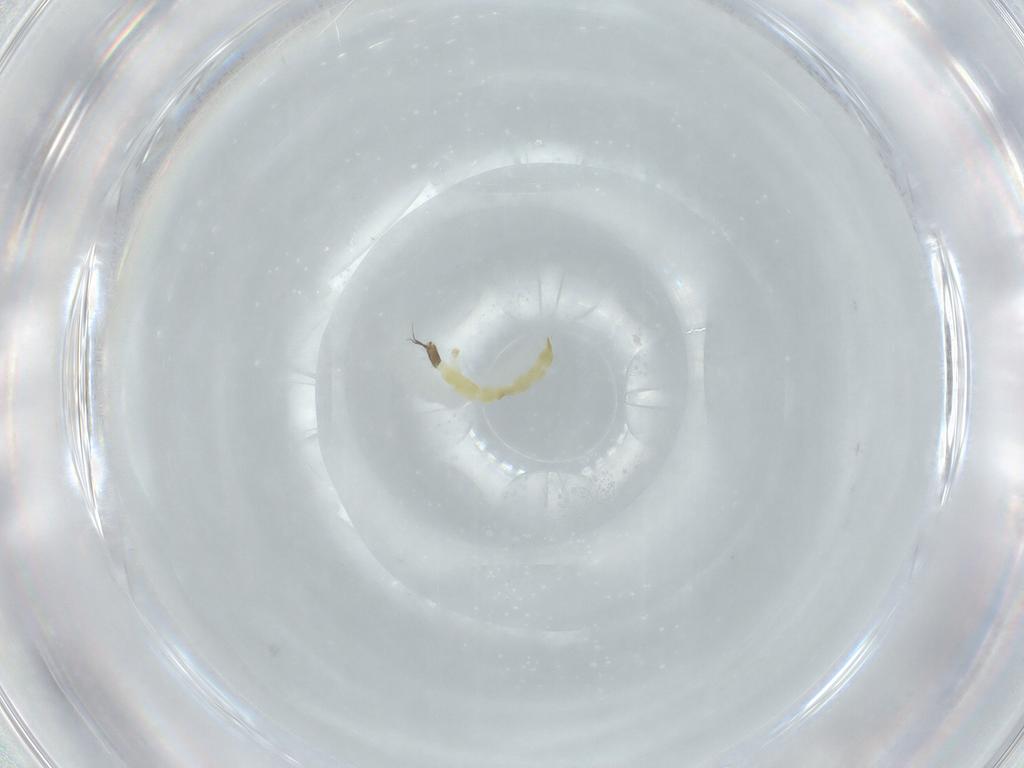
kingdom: Animalia
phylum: Arthropoda
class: Insecta
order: Diptera
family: Chironomidae
